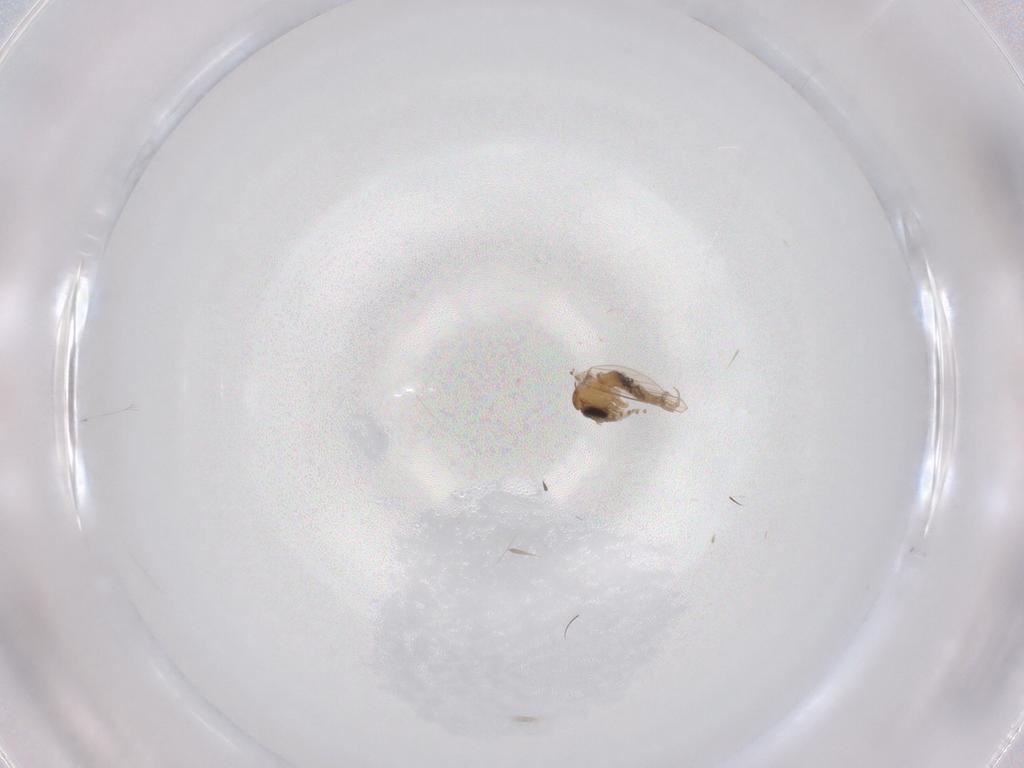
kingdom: Animalia
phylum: Arthropoda
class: Insecta
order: Diptera
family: Psychodidae
